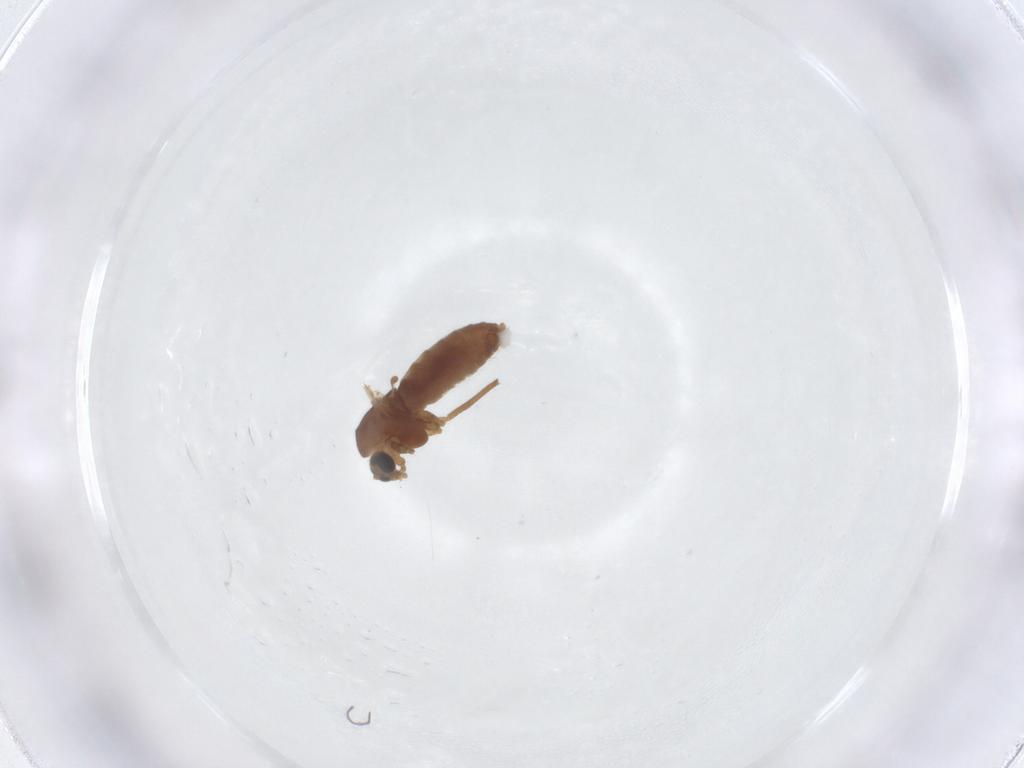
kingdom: Animalia
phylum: Arthropoda
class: Insecta
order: Diptera
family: Chironomidae
